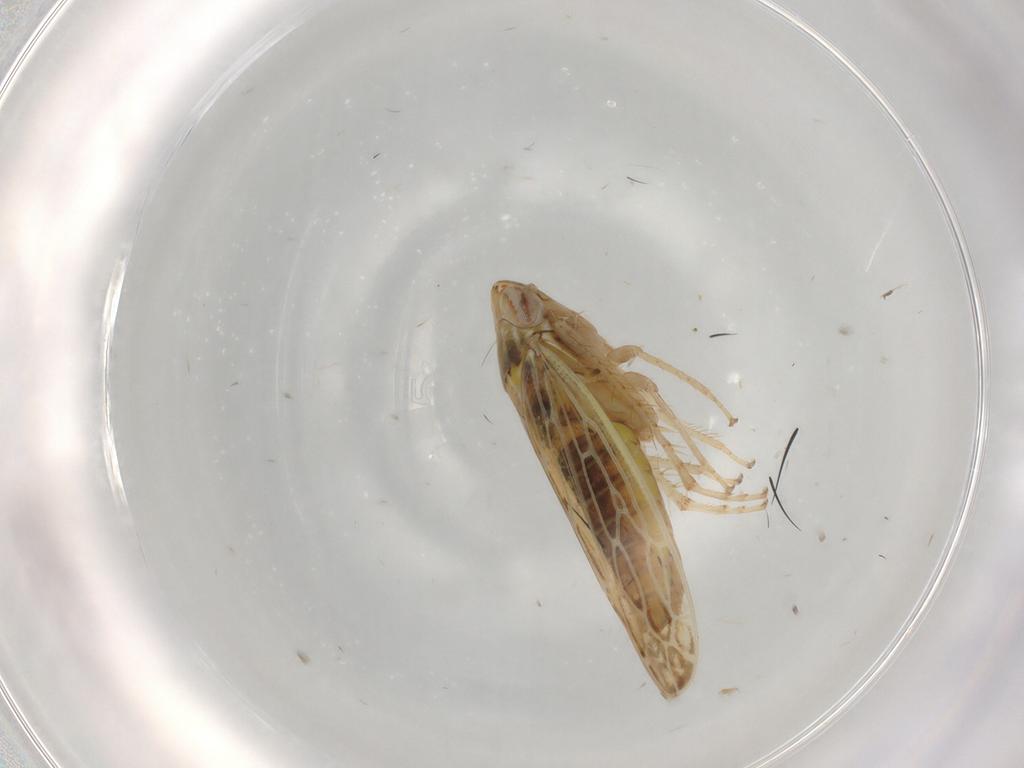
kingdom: Animalia
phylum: Arthropoda
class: Insecta
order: Hemiptera
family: Cicadellidae
